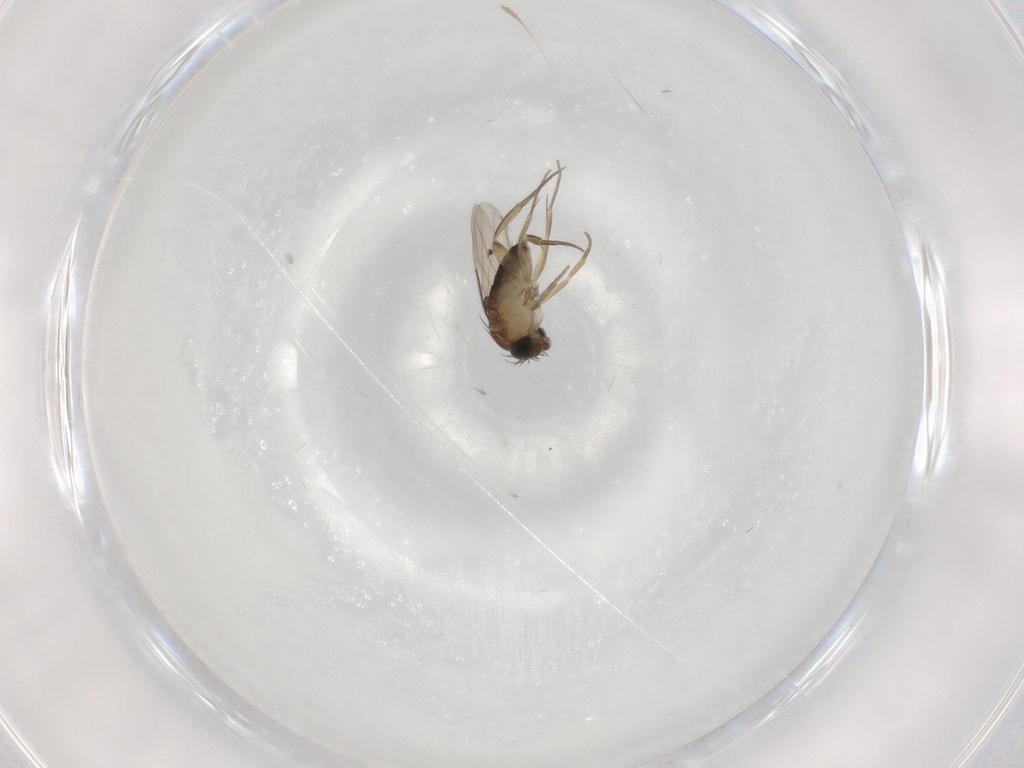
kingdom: Animalia
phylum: Arthropoda
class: Insecta
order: Diptera
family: Phoridae
